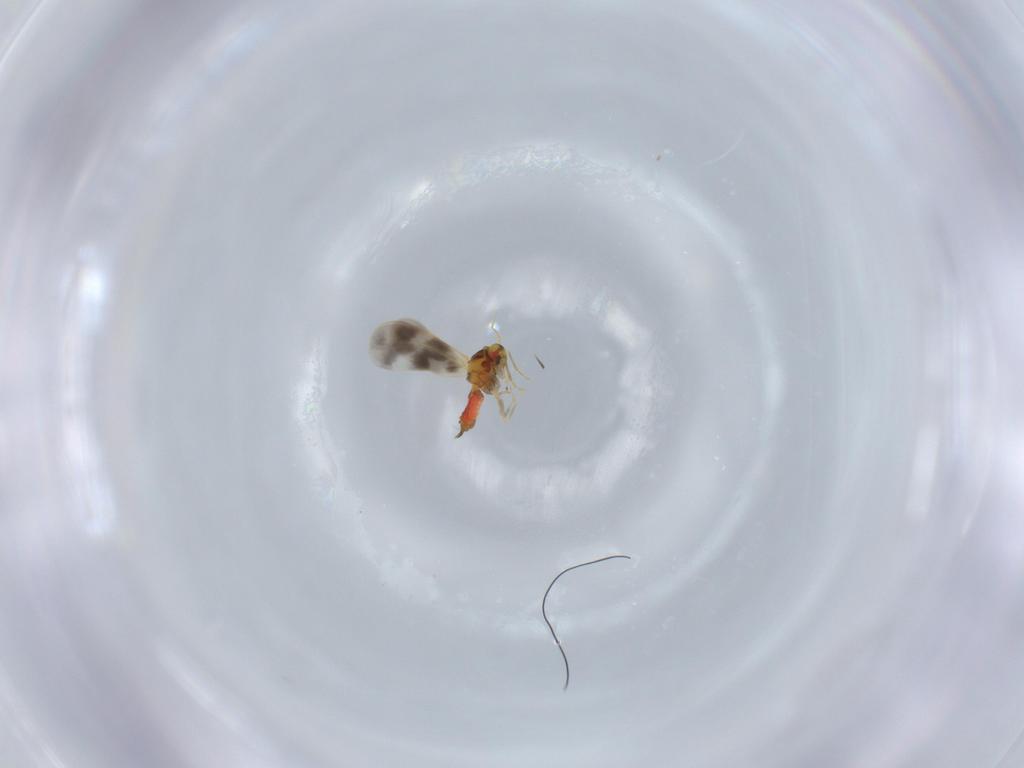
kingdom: Animalia
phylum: Arthropoda
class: Insecta
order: Hemiptera
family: Aleyrodidae
